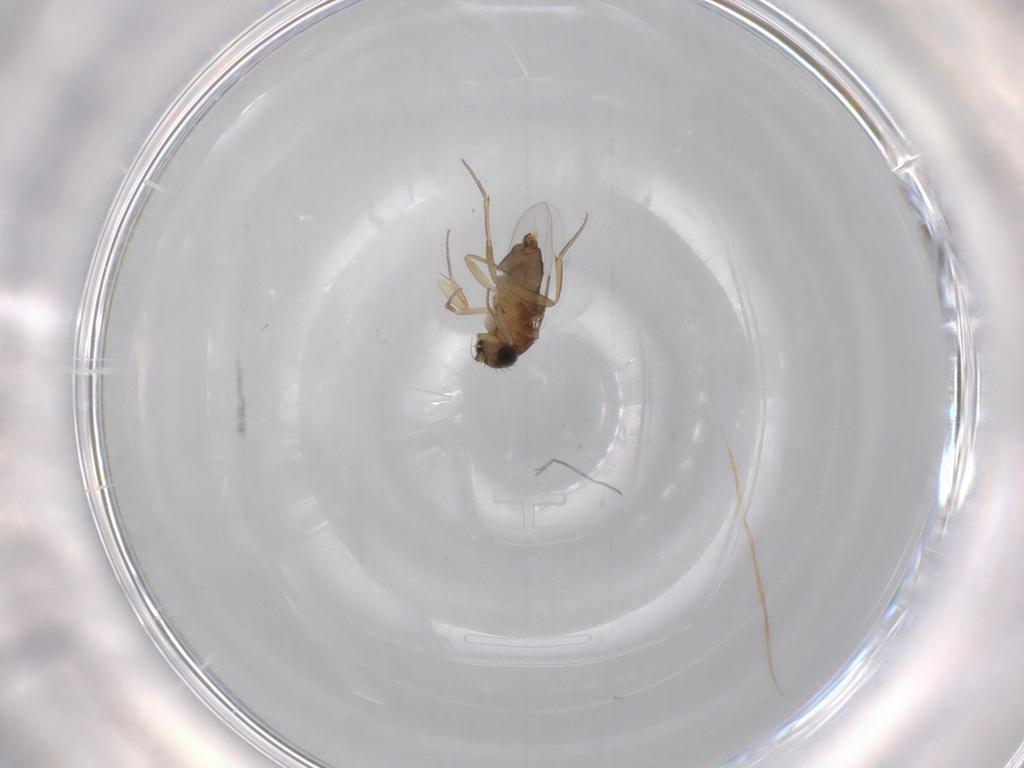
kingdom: Animalia
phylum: Arthropoda
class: Insecta
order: Diptera
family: Phoridae
